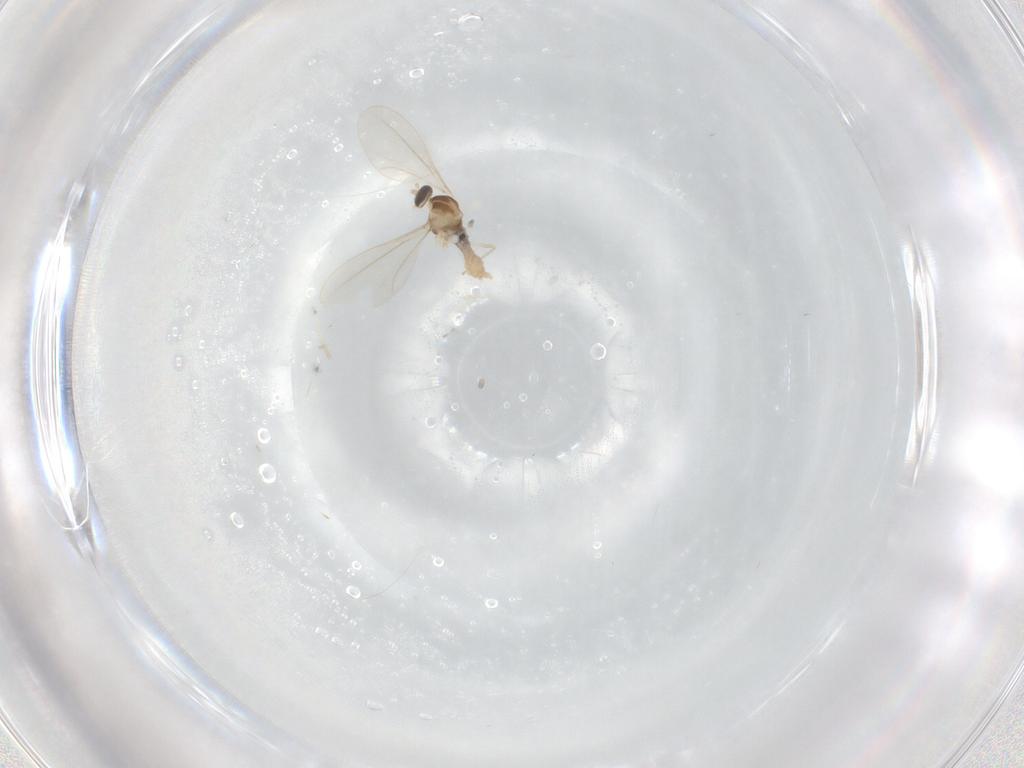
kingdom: Animalia
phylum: Arthropoda
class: Insecta
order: Diptera
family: Cecidomyiidae
